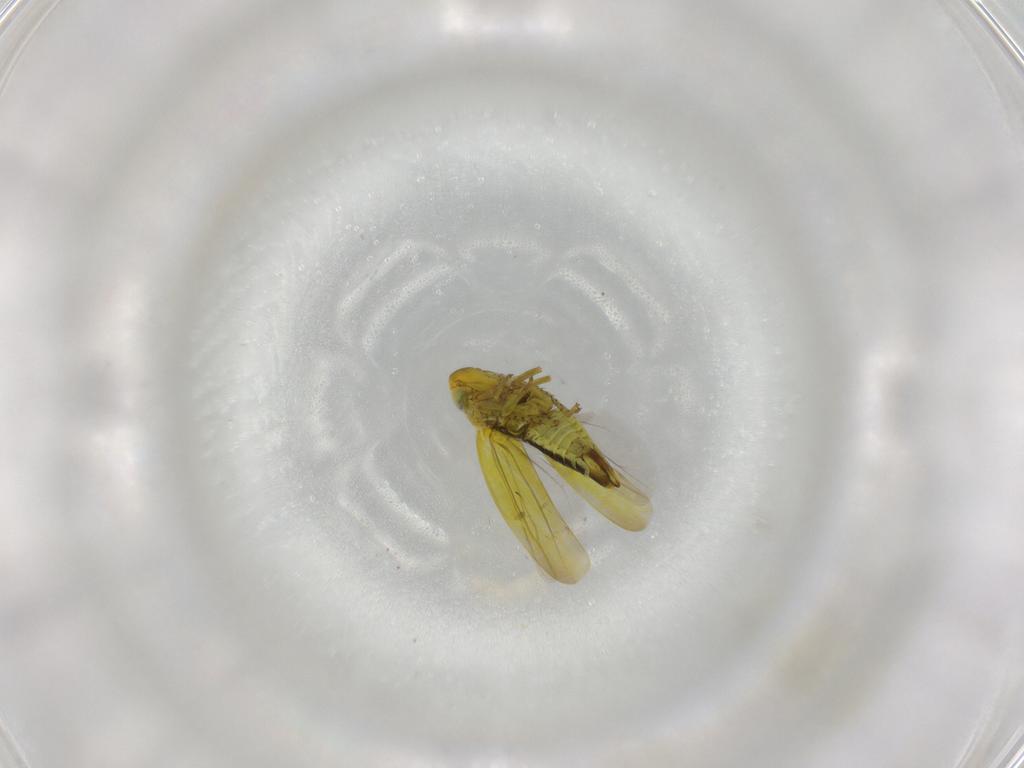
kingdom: Animalia
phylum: Arthropoda
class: Insecta
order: Hemiptera
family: Cicadellidae
